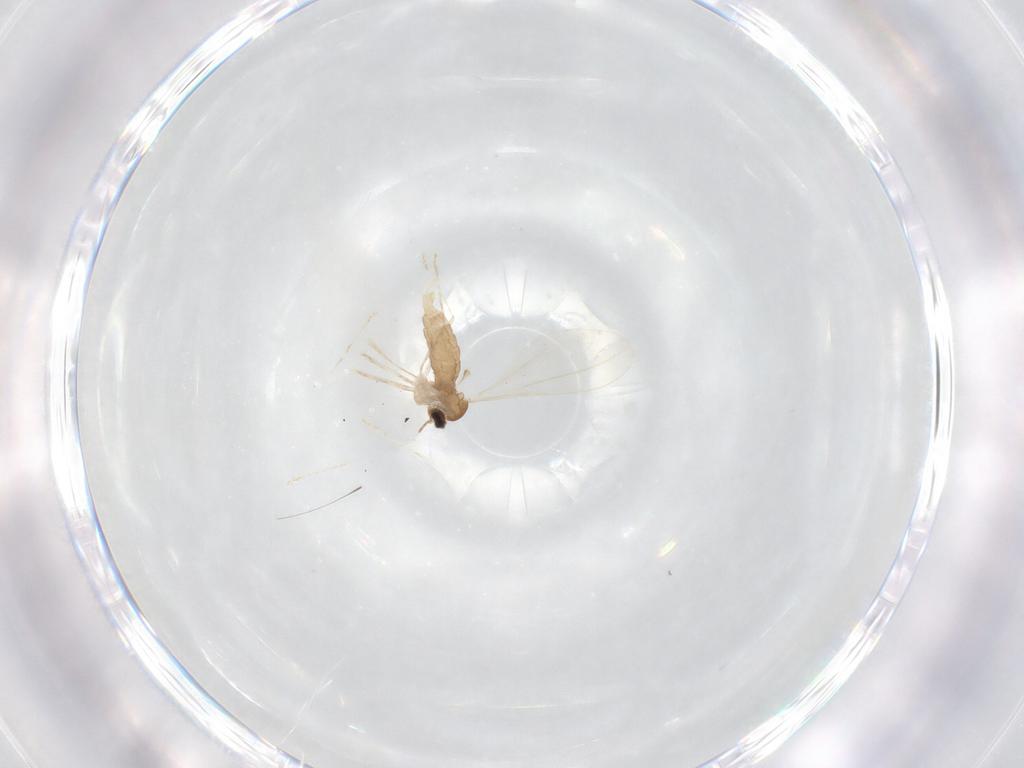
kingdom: Animalia
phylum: Arthropoda
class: Insecta
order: Diptera
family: Cecidomyiidae
